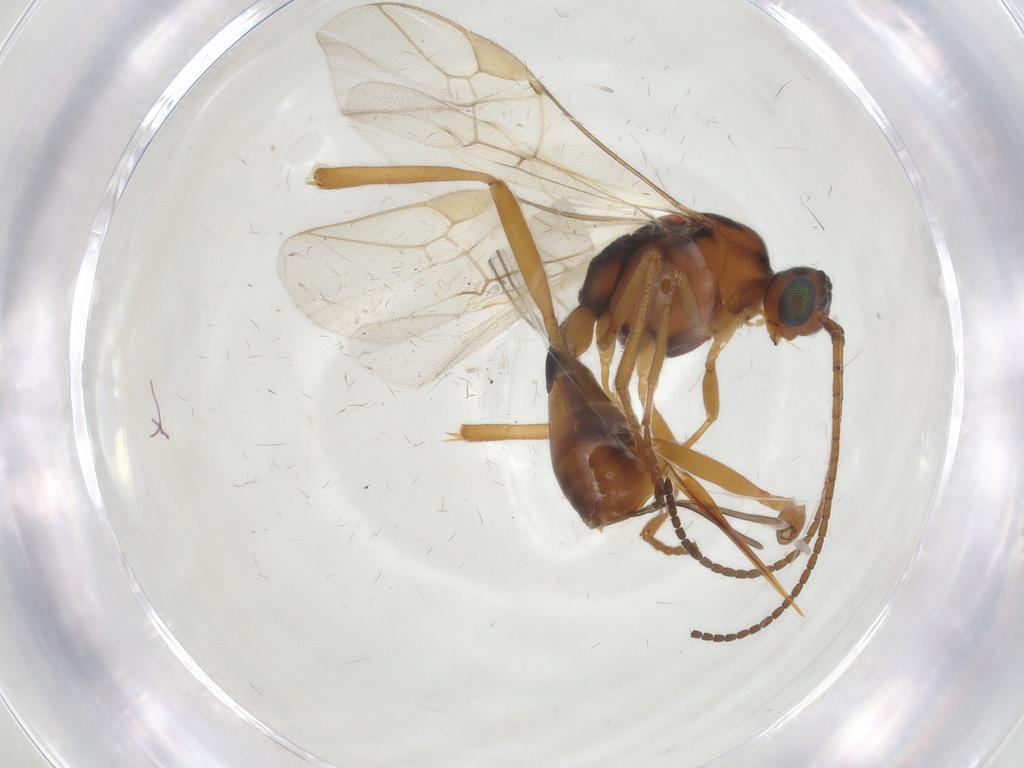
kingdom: Animalia
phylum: Arthropoda
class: Insecta
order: Hymenoptera
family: Braconidae
